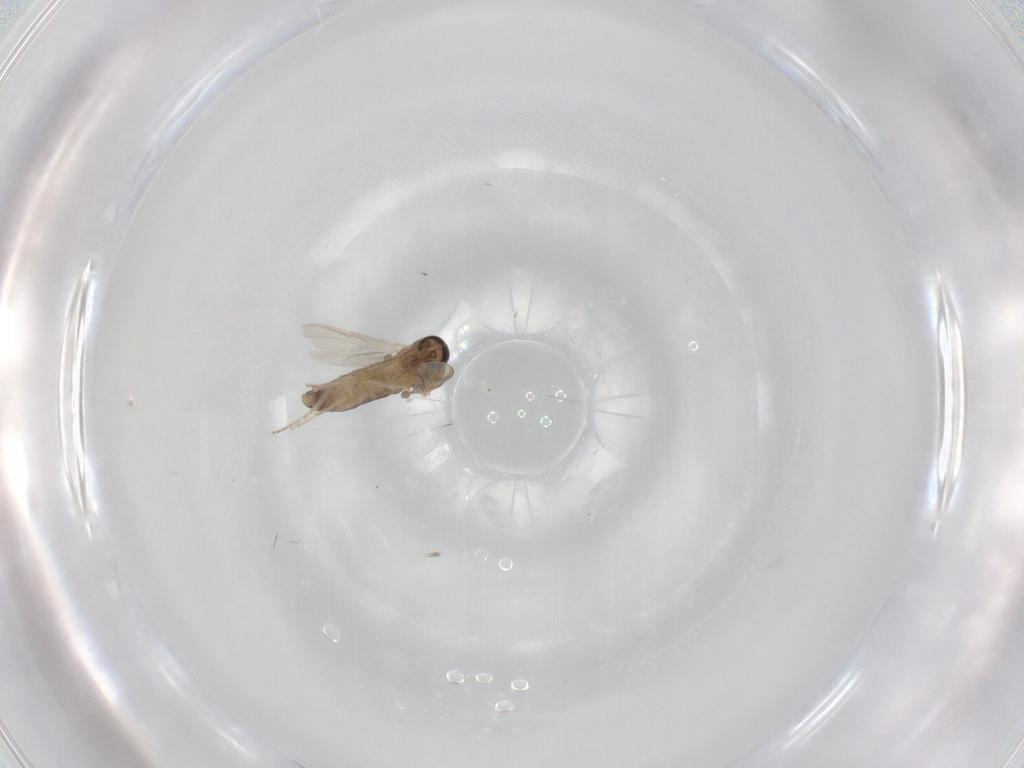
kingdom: Animalia
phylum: Arthropoda
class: Insecta
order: Diptera
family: Ceratopogonidae
